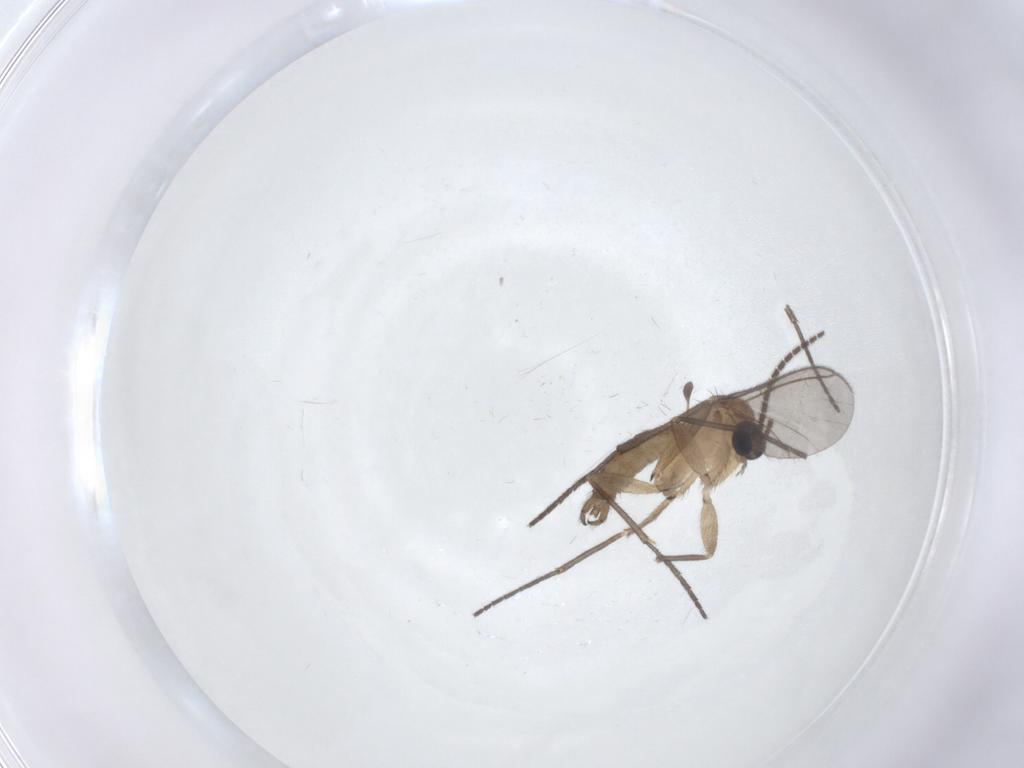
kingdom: Animalia
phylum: Arthropoda
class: Insecta
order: Diptera
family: Sciaridae
